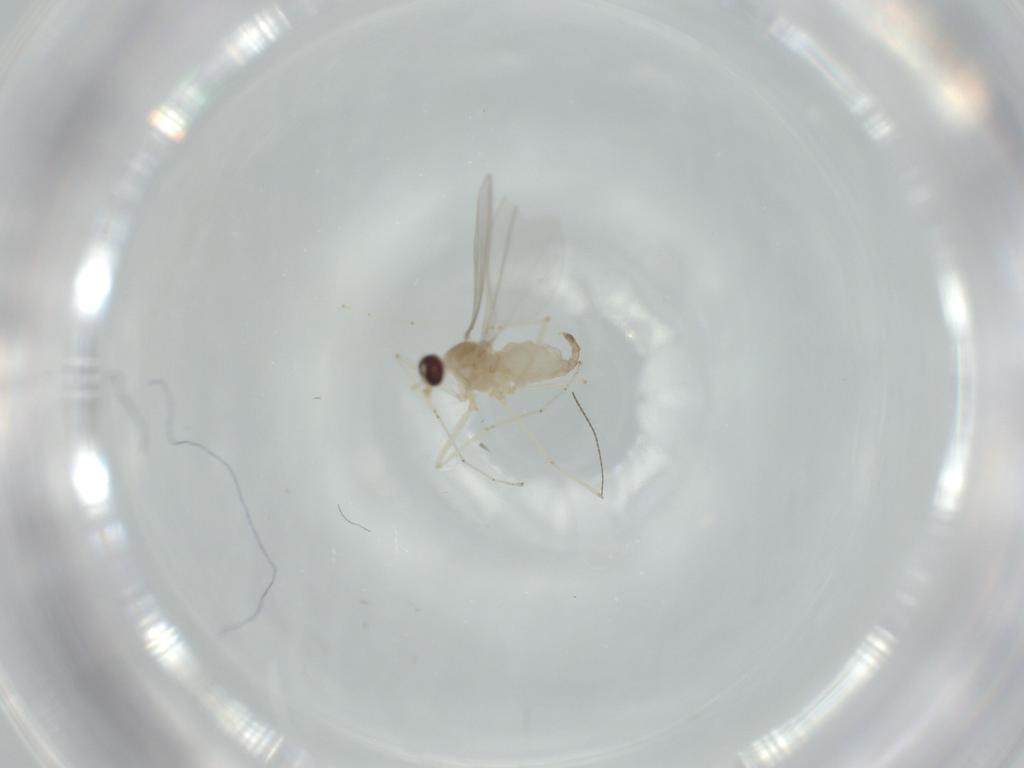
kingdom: Animalia
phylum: Arthropoda
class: Insecta
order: Diptera
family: Cecidomyiidae
